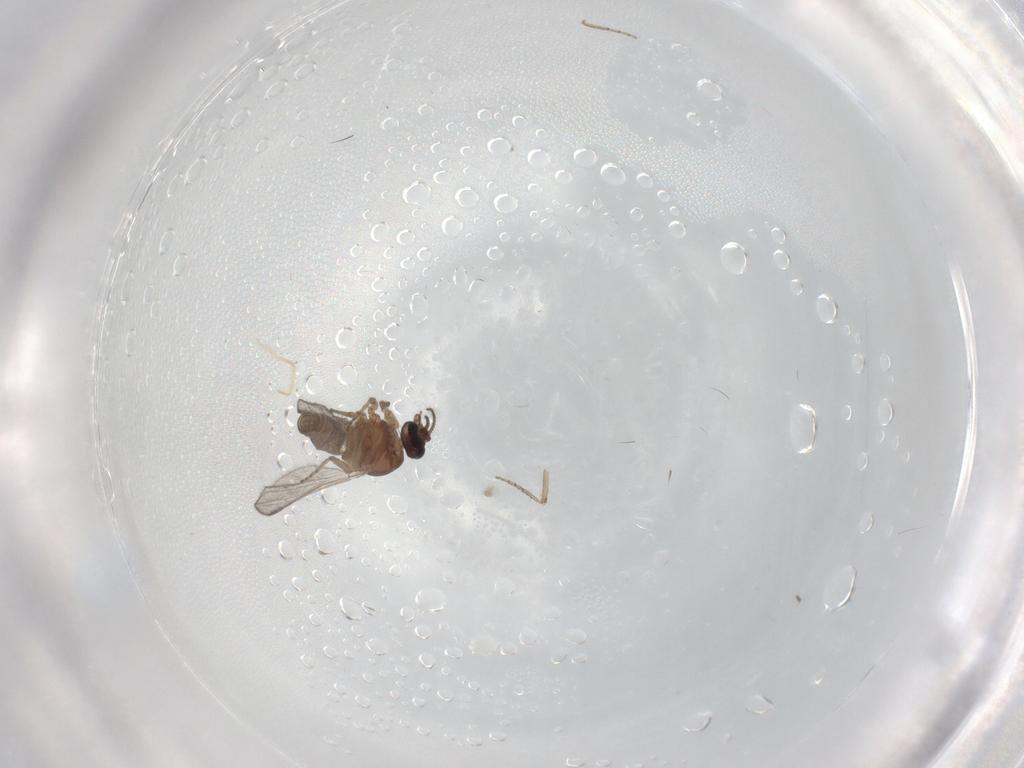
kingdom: Animalia
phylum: Arthropoda
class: Insecta
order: Diptera
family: Ceratopogonidae
